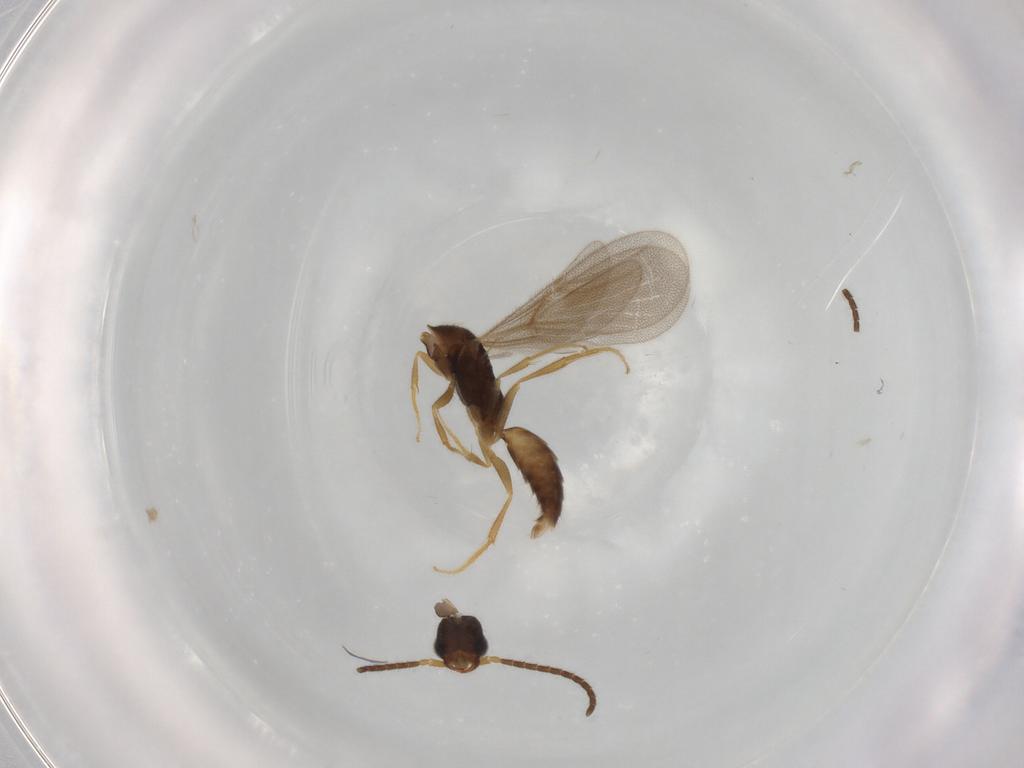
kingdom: Animalia
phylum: Arthropoda
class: Insecta
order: Hymenoptera
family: Bethylidae
